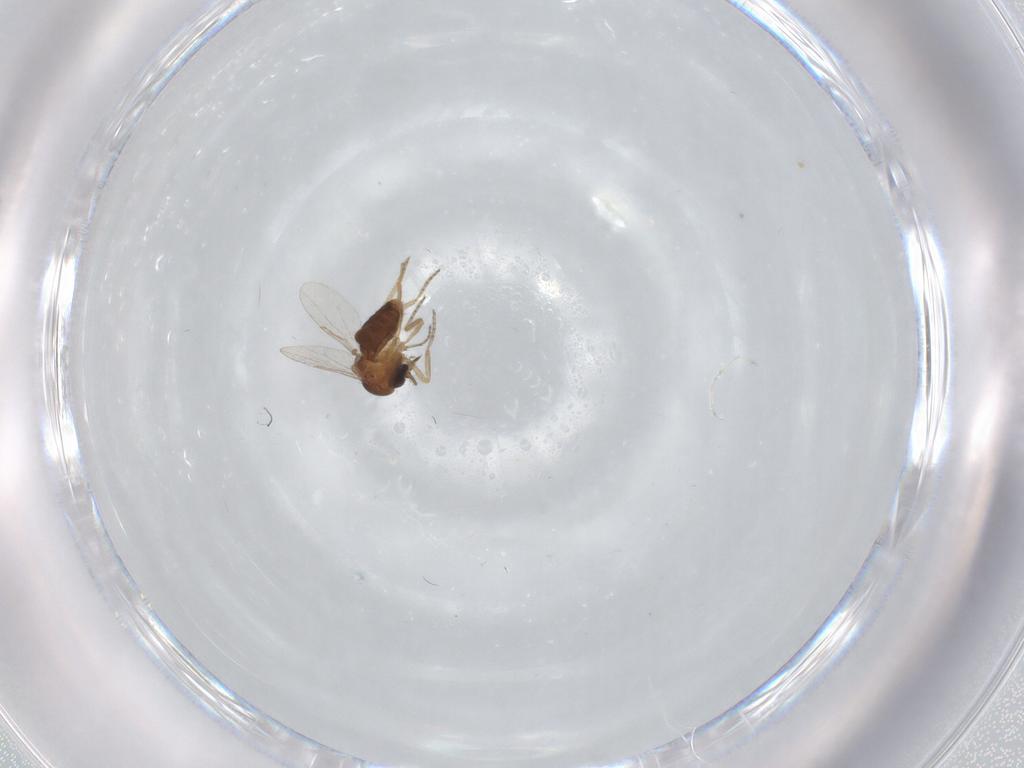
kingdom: Animalia
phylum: Arthropoda
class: Insecta
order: Diptera
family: Ceratopogonidae
